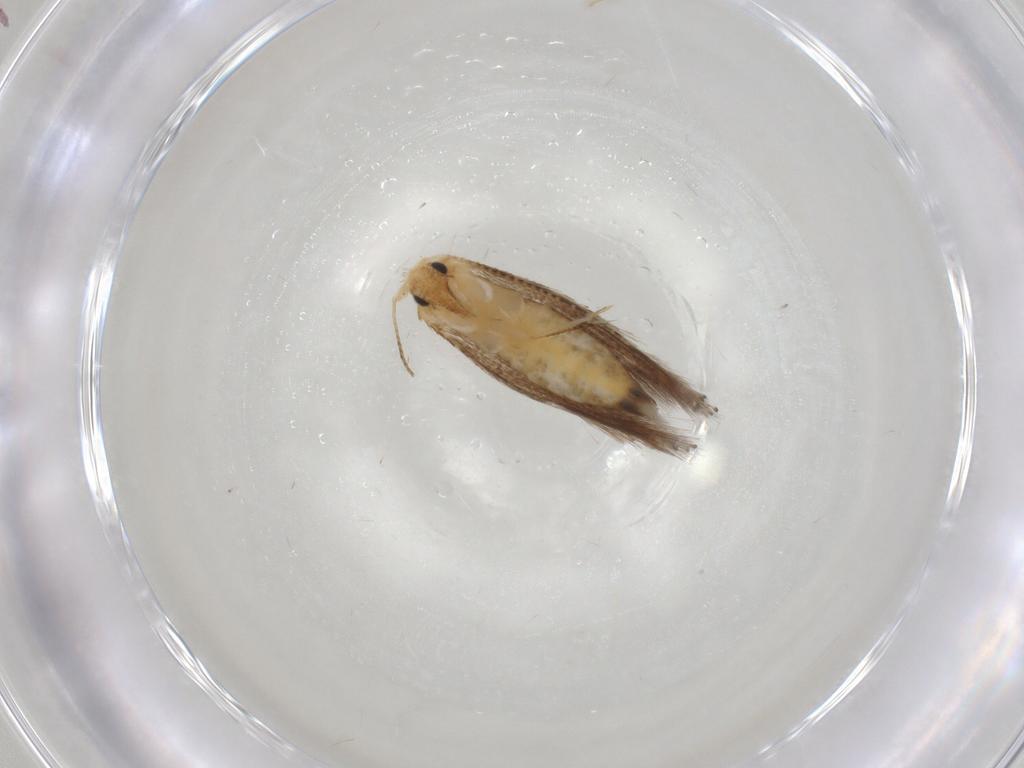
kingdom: Animalia
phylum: Arthropoda
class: Insecta
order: Lepidoptera
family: Bucculatricidae
